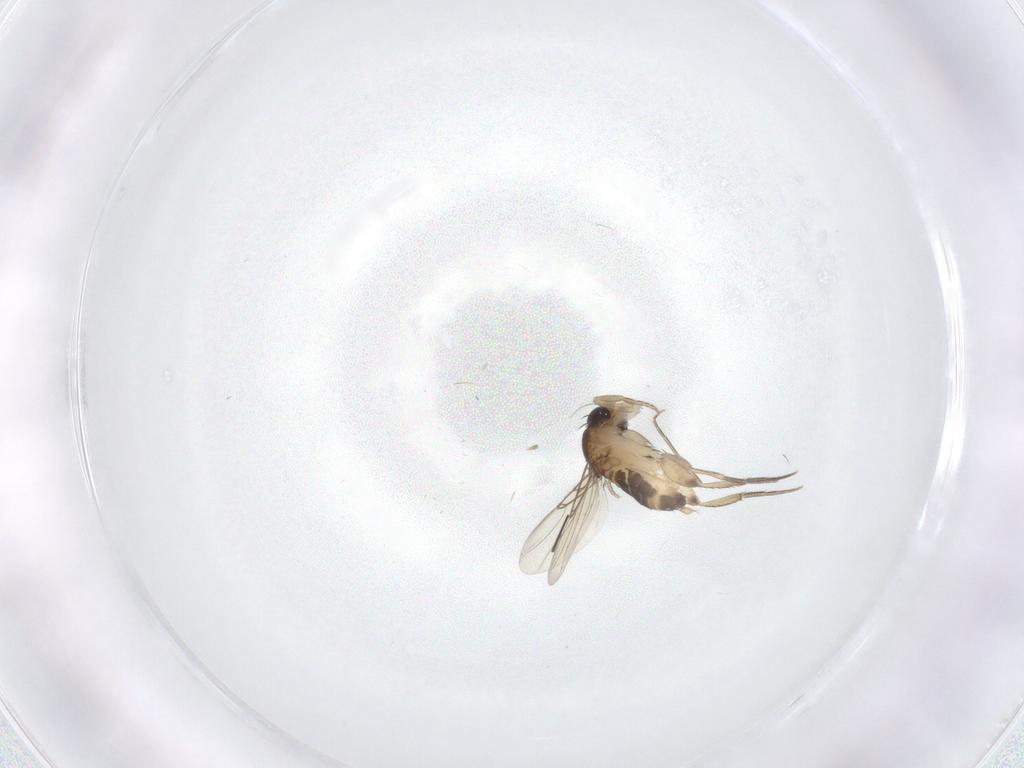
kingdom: Animalia
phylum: Arthropoda
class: Insecta
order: Diptera
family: Phoridae
